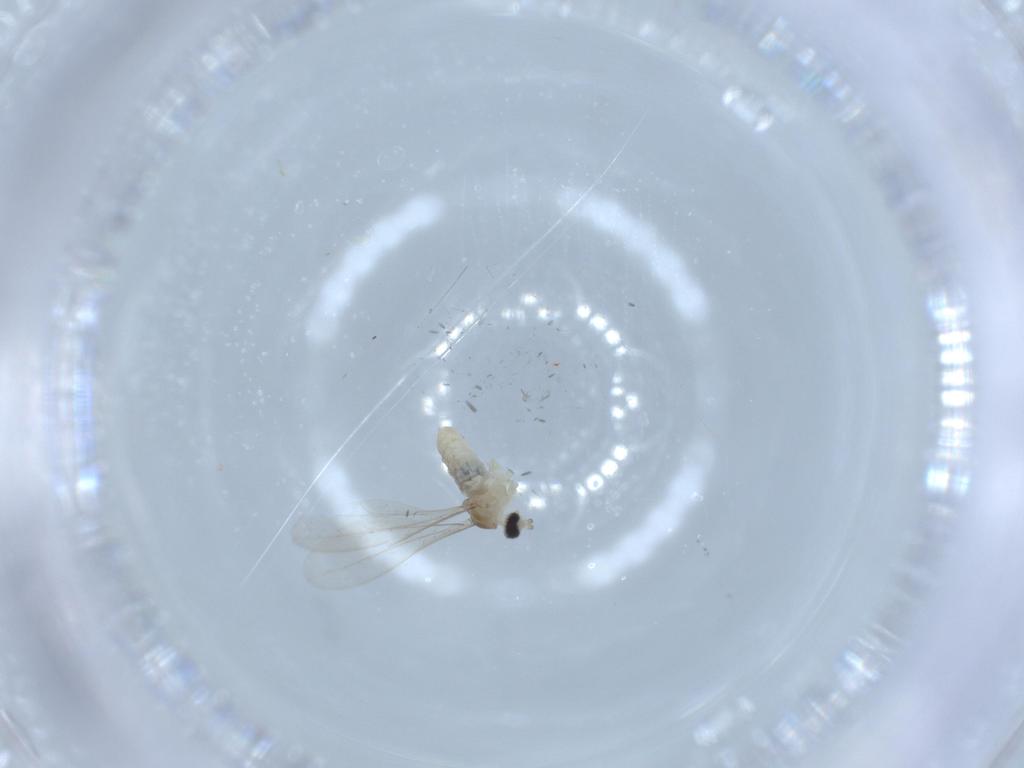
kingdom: Animalia
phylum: Arthropoda
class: Insecta
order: Diptera
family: Cecidomyiidae
